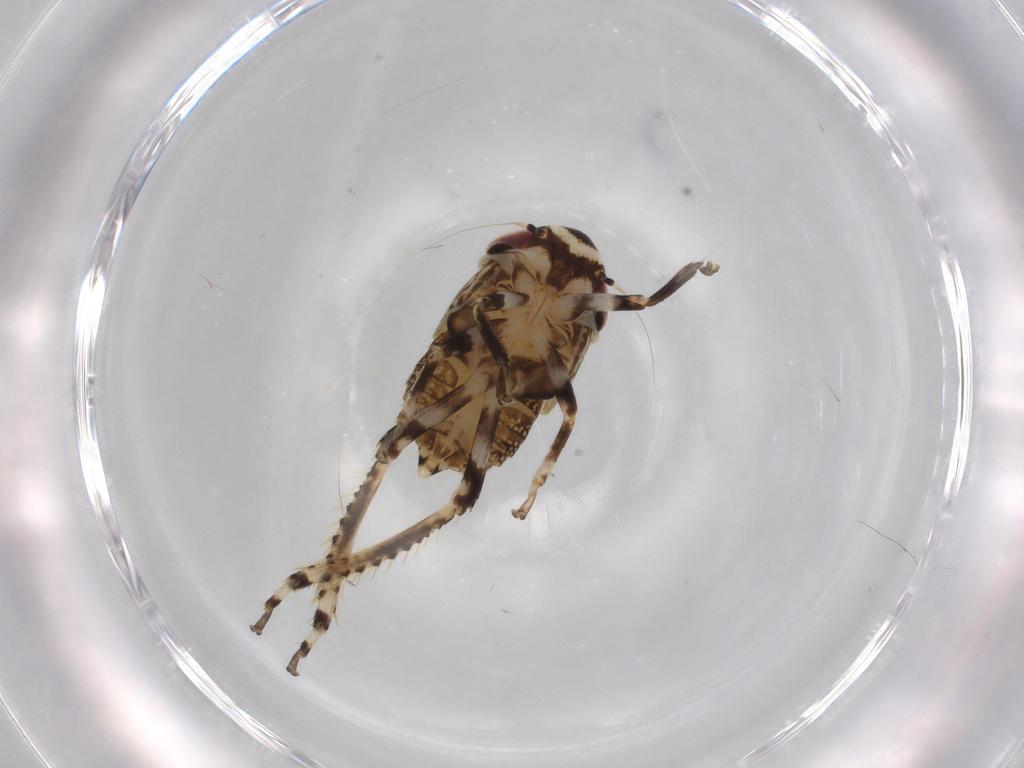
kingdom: Animalia
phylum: Arthropoda
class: Insecta
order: Hemiptera
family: Cicadellidae
